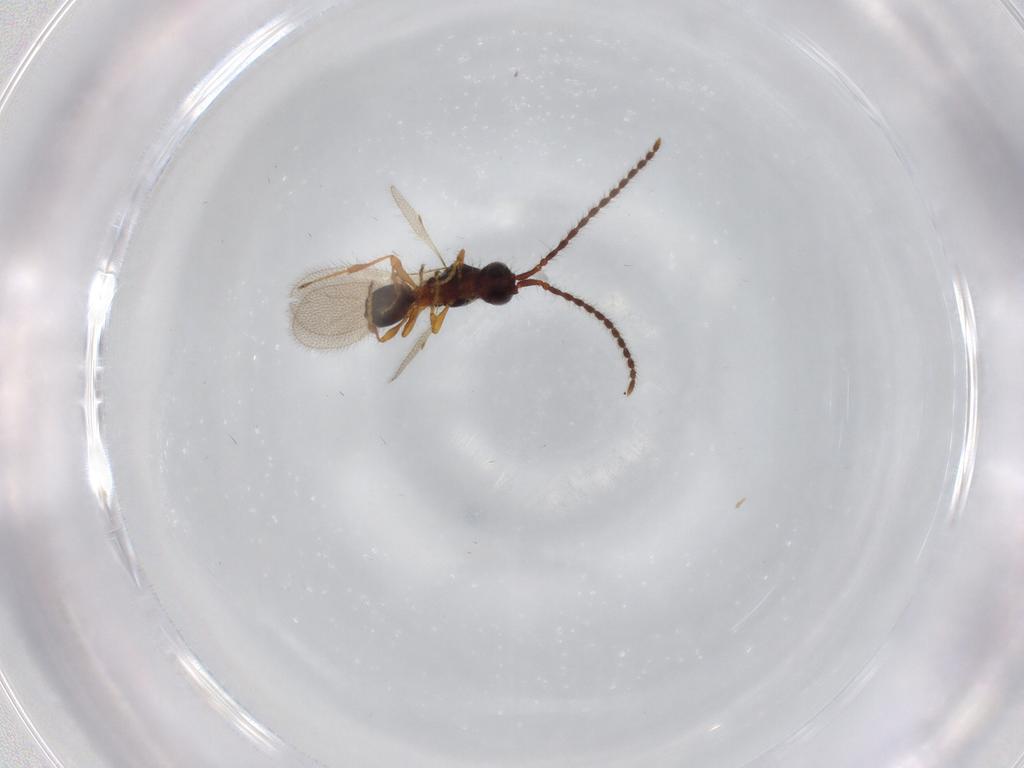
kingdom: Animalia
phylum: Arthropoda
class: Insecta
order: Hymenoptera
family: Diapriidae
